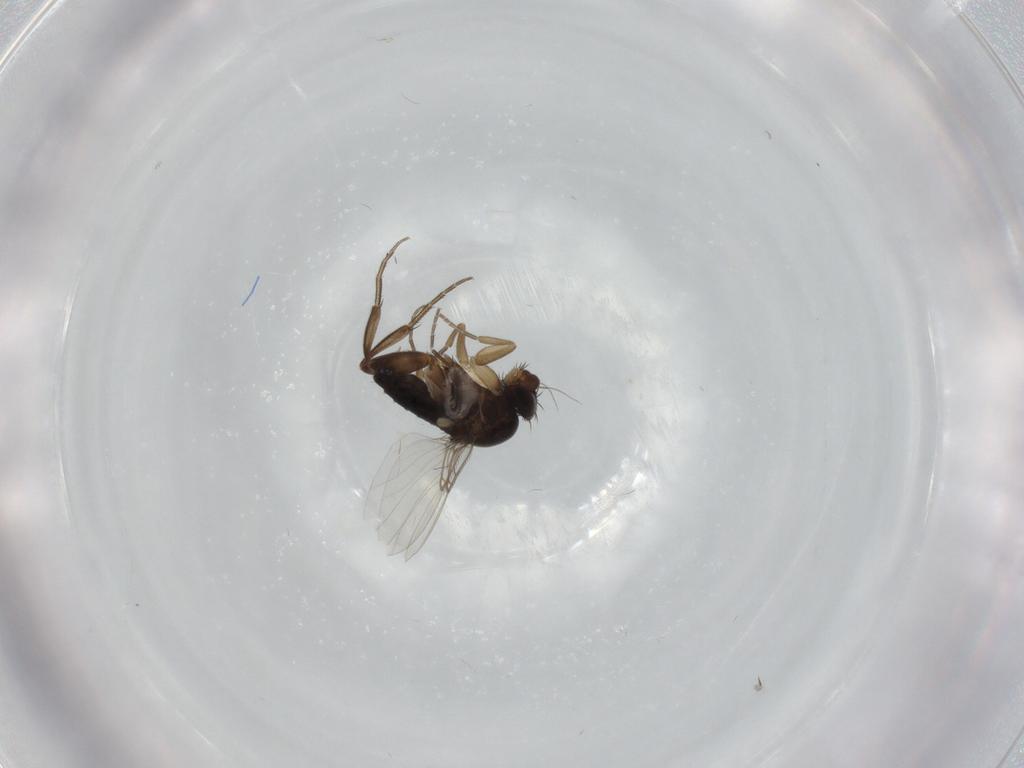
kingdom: Animalia
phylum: Arthropoda
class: Insecta
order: Diptera
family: Phoridae
